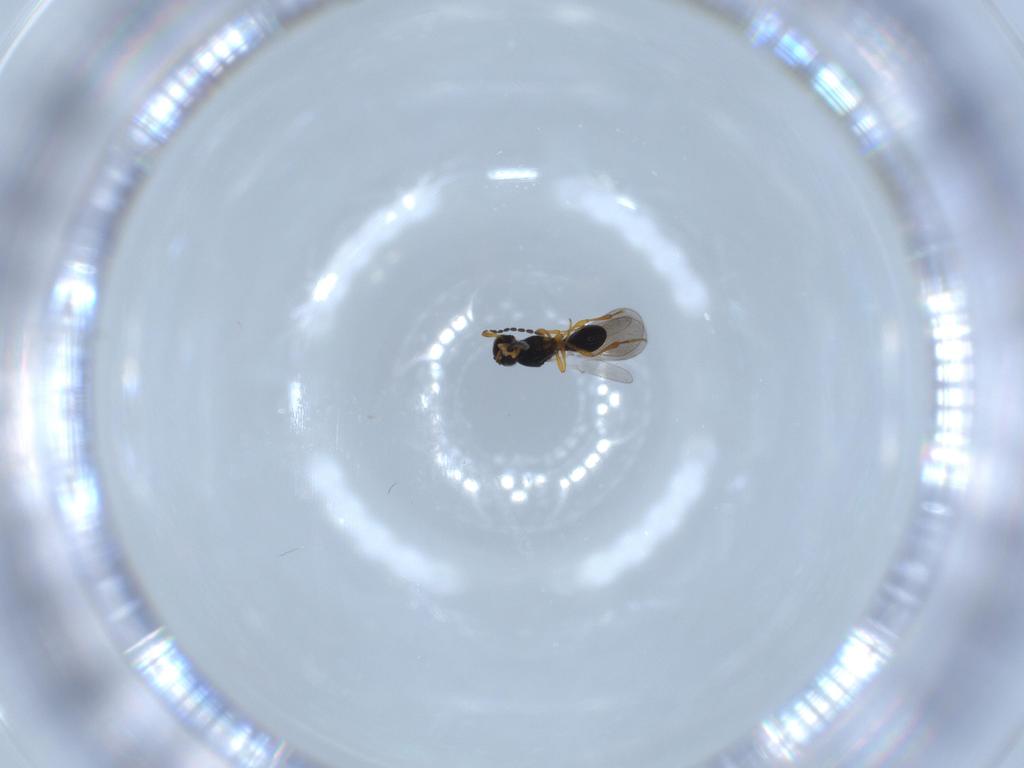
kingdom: Animalia
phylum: Arthropoda
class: Insecta
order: Hymenoptera
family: Platygastridae
